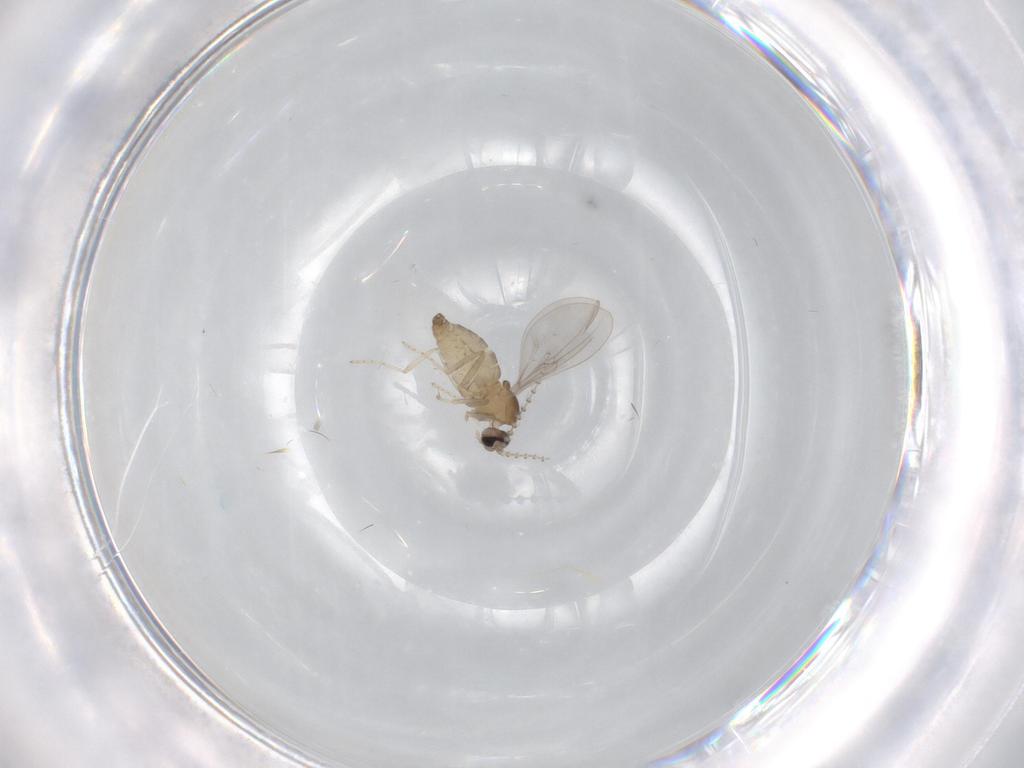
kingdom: Animalia
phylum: Arthropoda
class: Insecta
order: Diptera
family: Cecidomyiidae
